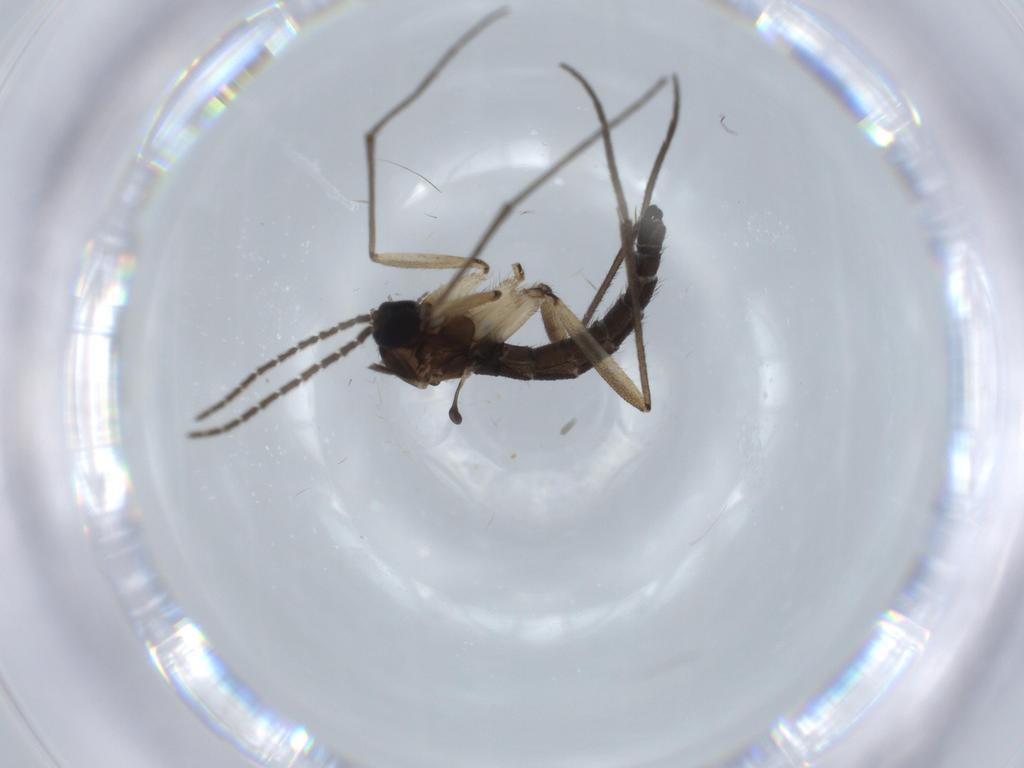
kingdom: Animalia
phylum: Arthropoda
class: Insecta
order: Diptera
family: Sciaridae
